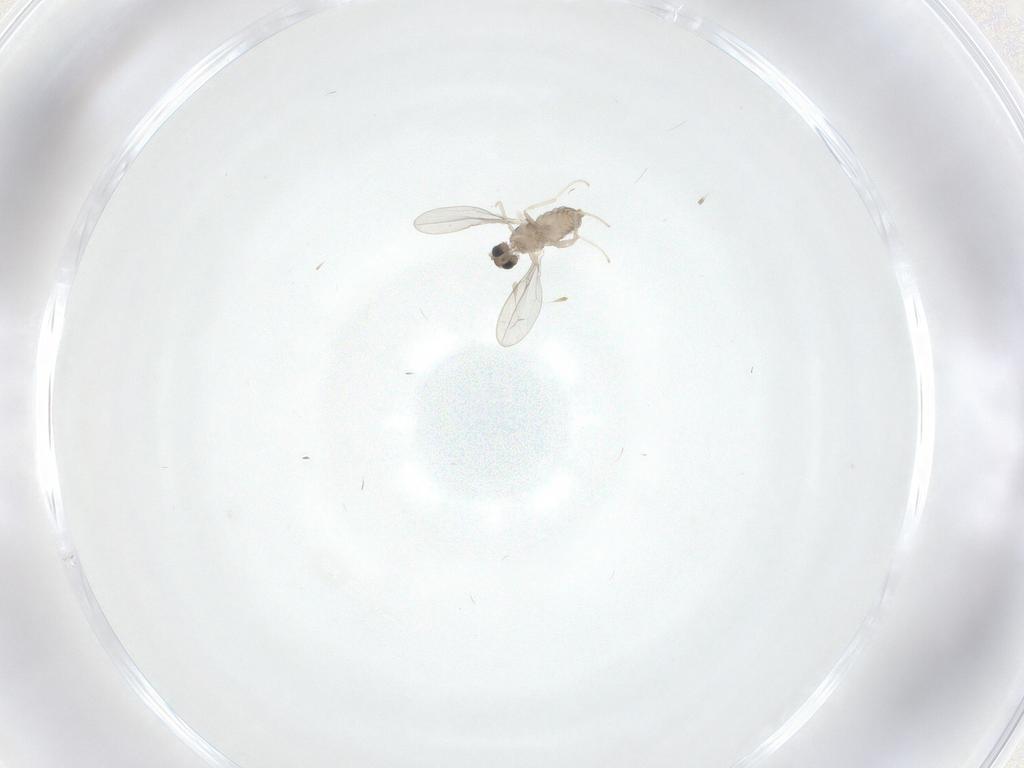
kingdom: Animalia
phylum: Arthropoda
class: Insecta
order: Diptera
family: Cecidomyiidae
